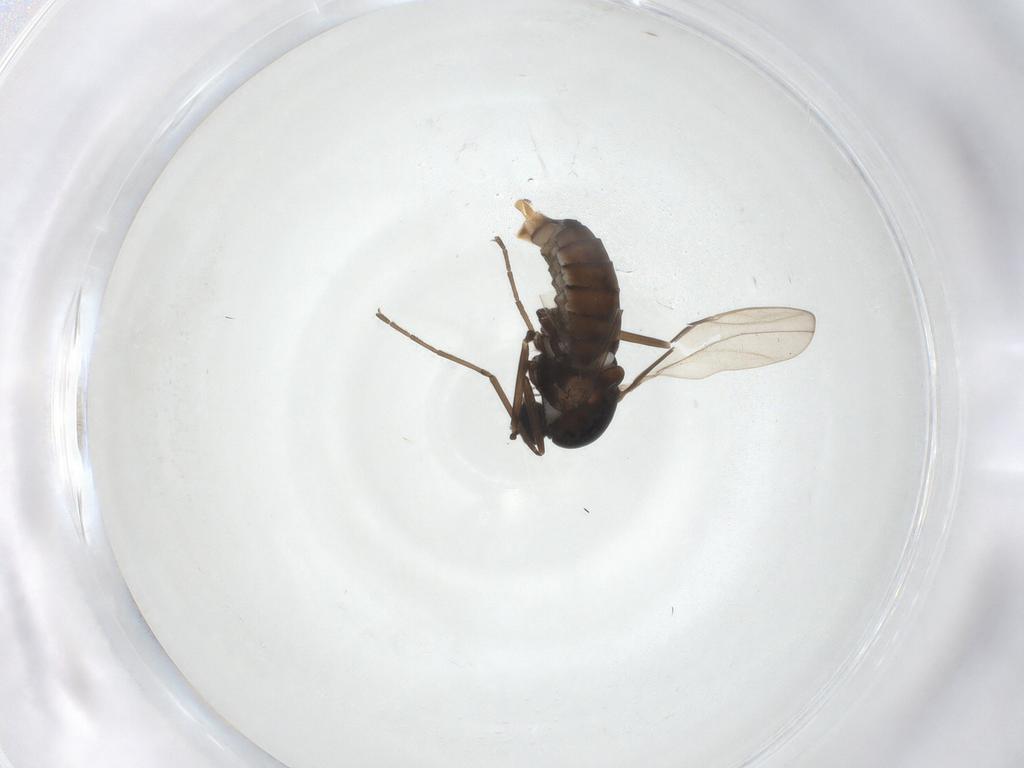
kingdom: Animalia
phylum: Arthropoda
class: Insecta
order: Diptera
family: Cecidomyiidae
